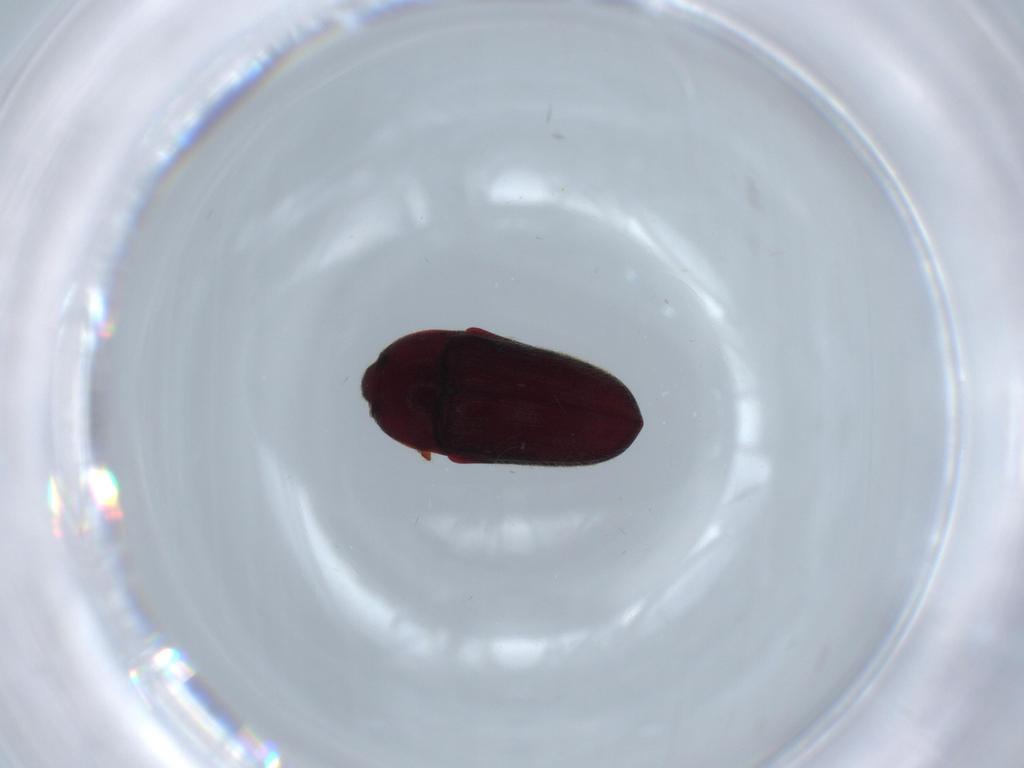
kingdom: Animalia
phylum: Arthropoda
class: Insecta
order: Coleoptera
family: Throscidae
